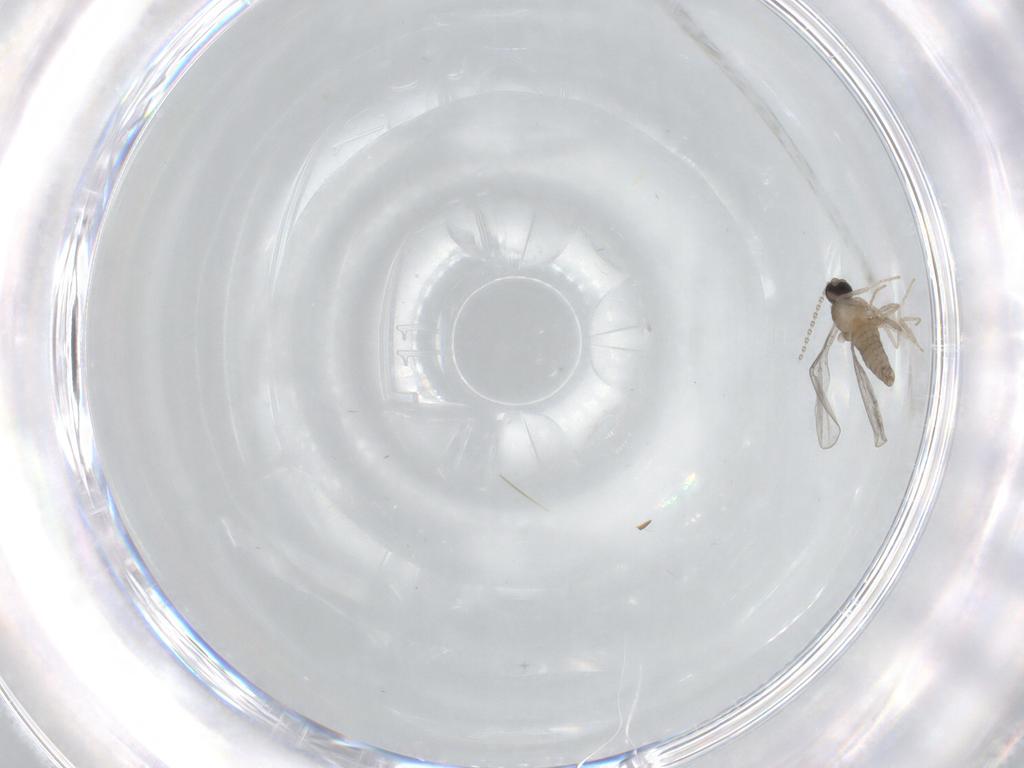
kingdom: Animalia
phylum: Arthropoda
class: Insecta
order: Diptera
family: Cecidomyiidae
